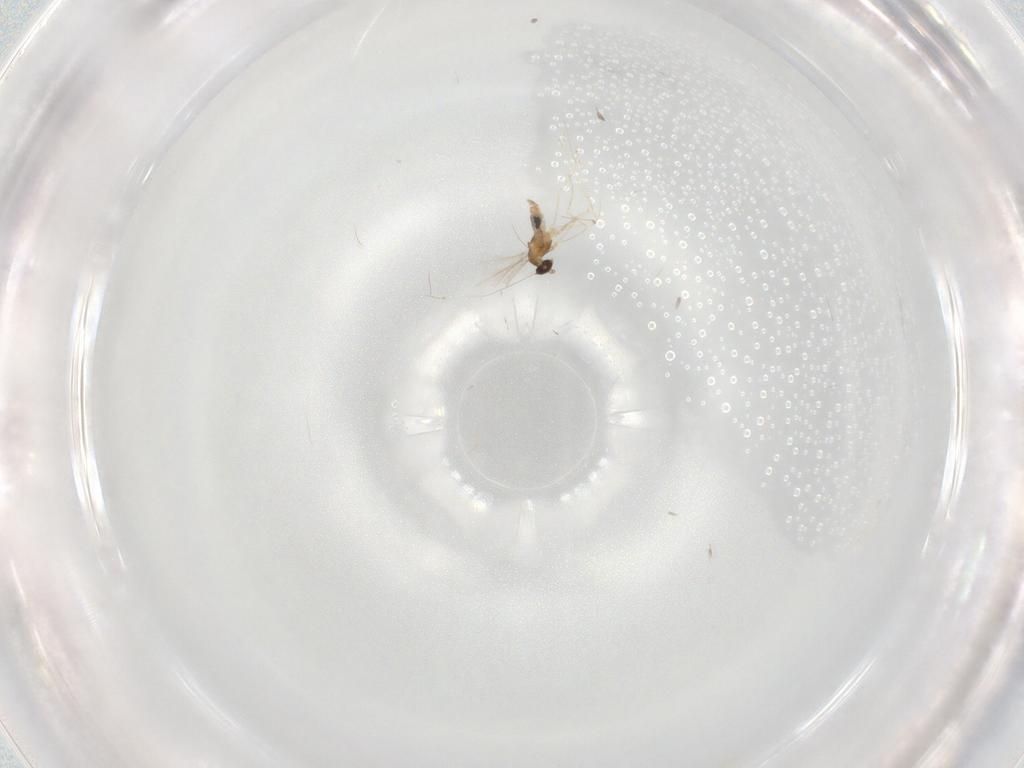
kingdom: Animalia
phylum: Arthropoda
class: Insecta
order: Diptera
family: Cecidomyiidae
